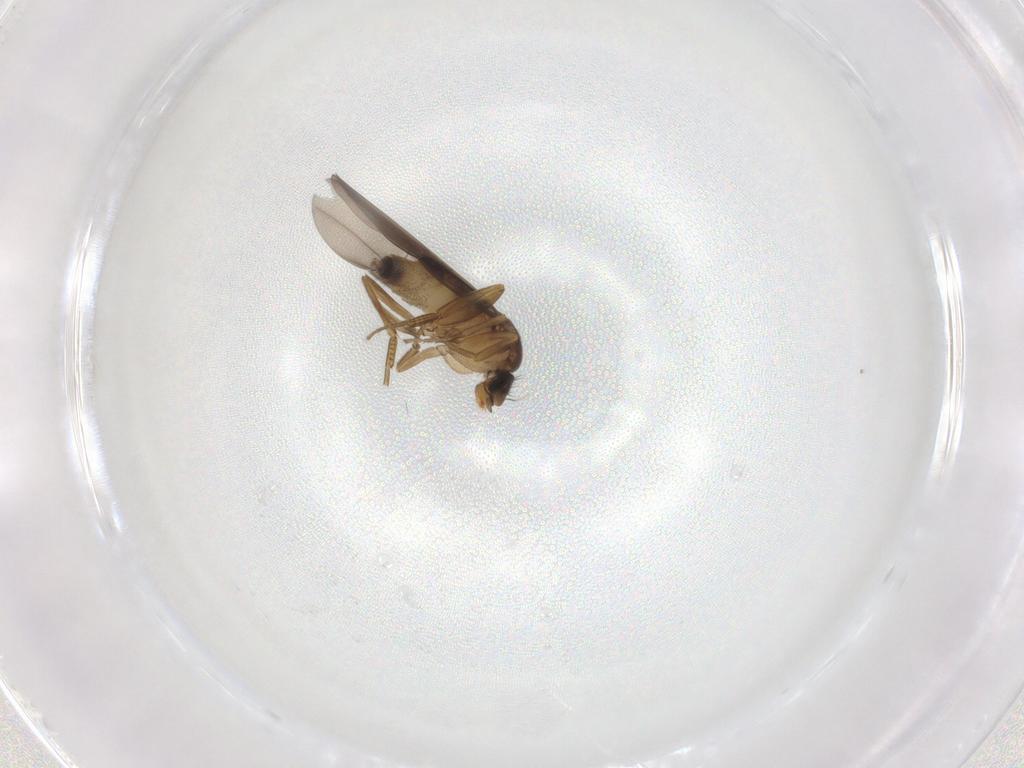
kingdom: Animalia
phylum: Arthropoda
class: Insecta
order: Diptera
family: Phoridae
